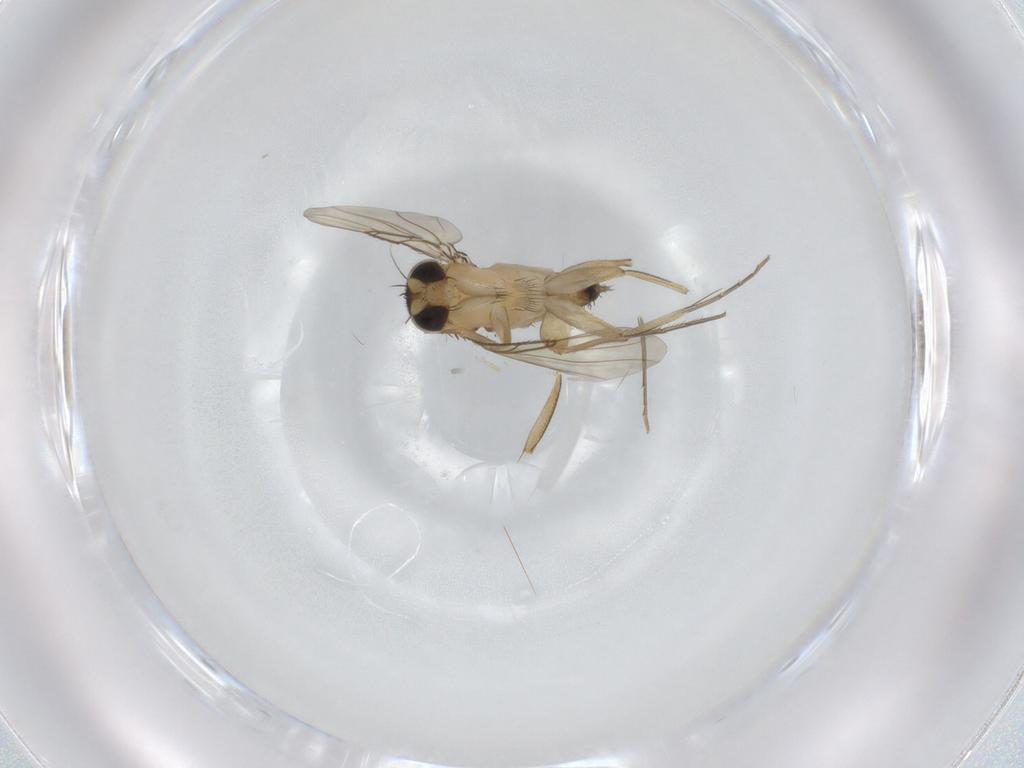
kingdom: Animalia
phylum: Arthropoda
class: Insecta
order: Diptera
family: Phoridae
